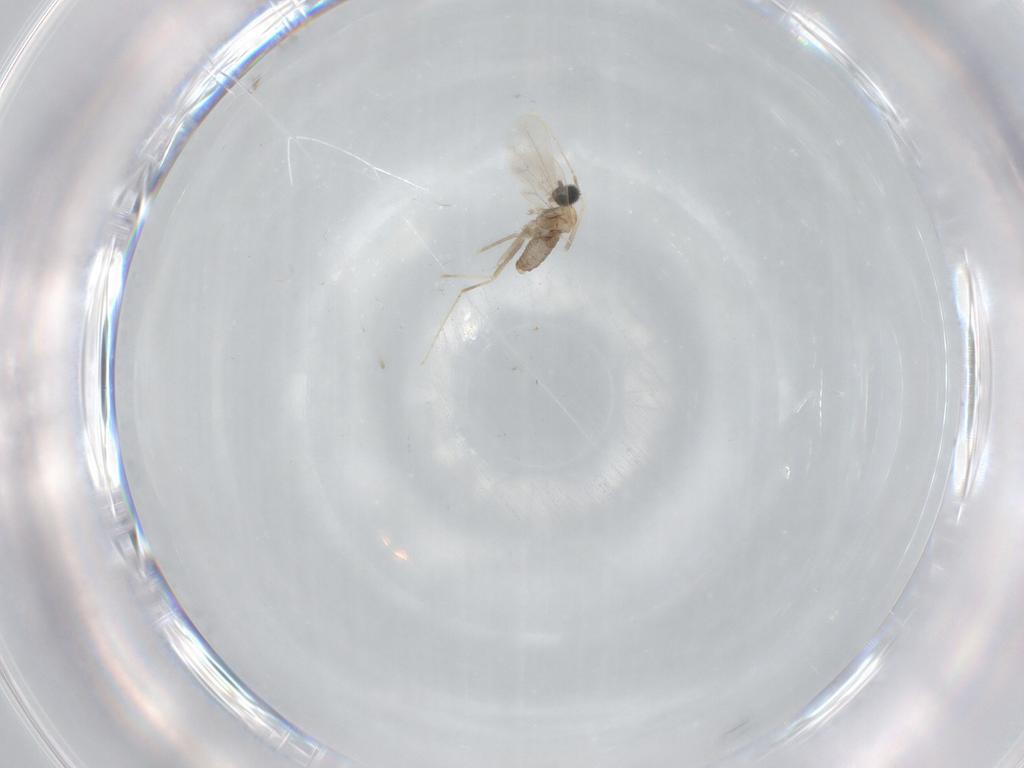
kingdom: Animalia
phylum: Arthropoda
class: Insecta
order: Diptera
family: Cecidomyiidae
